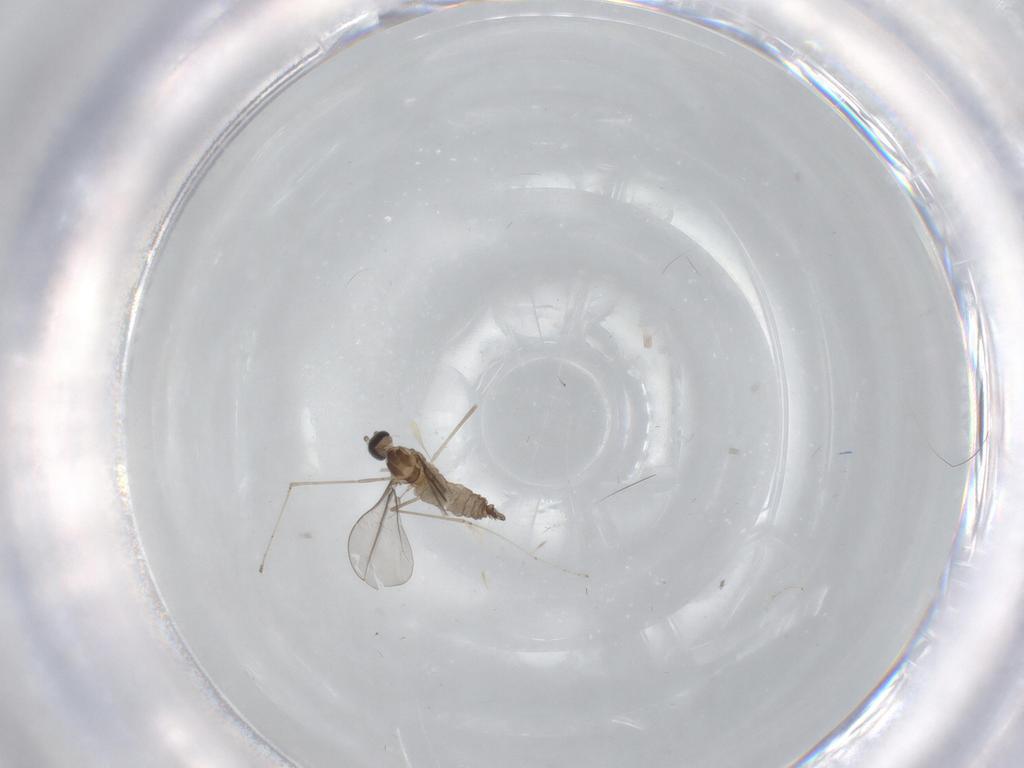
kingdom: Animalia
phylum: Arthropoda
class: Insecta
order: Diptera
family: Cecidomyiidae
